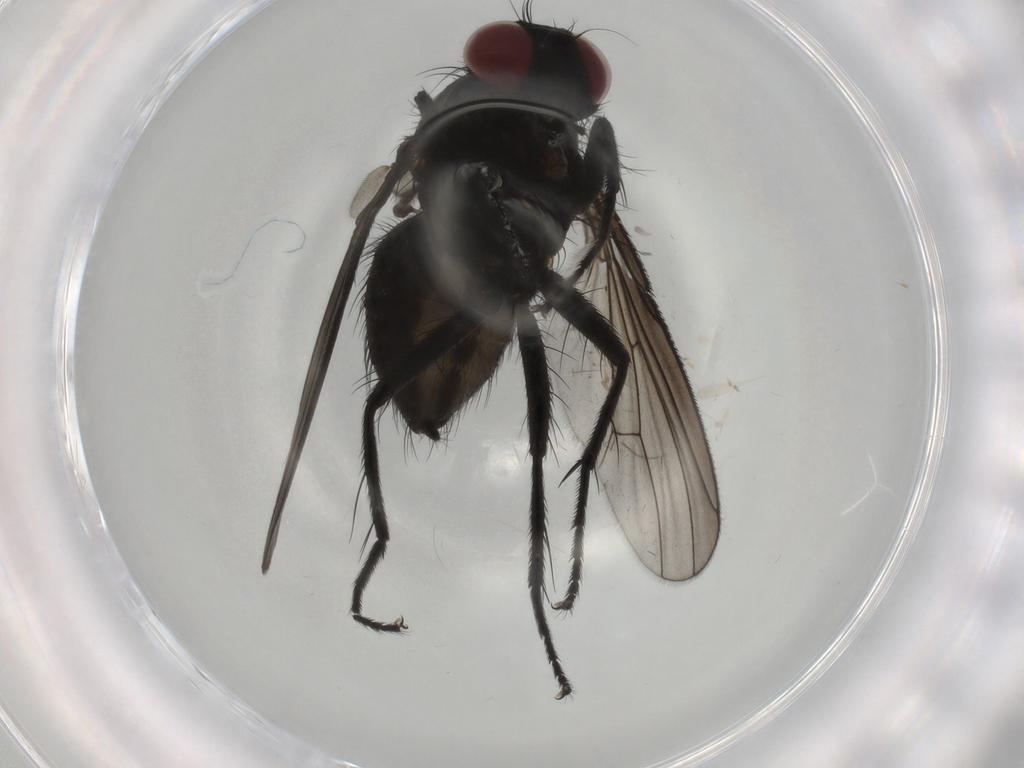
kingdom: Animalia
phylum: Arthropoda
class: Insecta
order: Diptera
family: Muscidae
